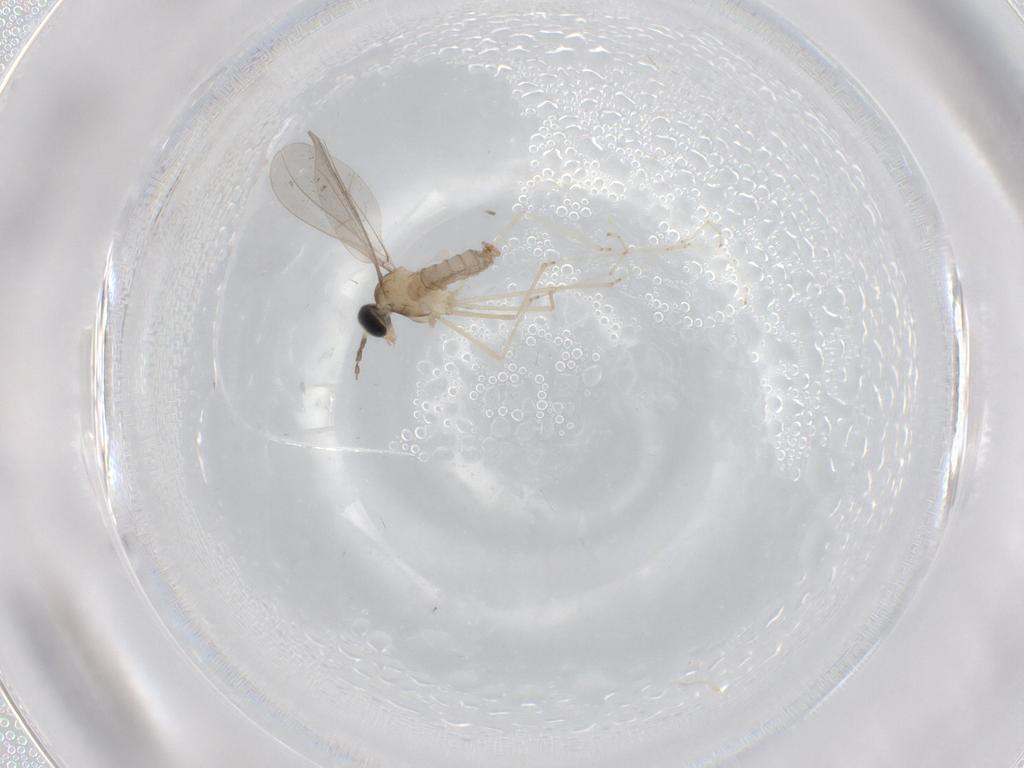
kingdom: Animalia
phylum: Arthropoda
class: Insecta
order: Diptera
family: Cecidomyiidae
